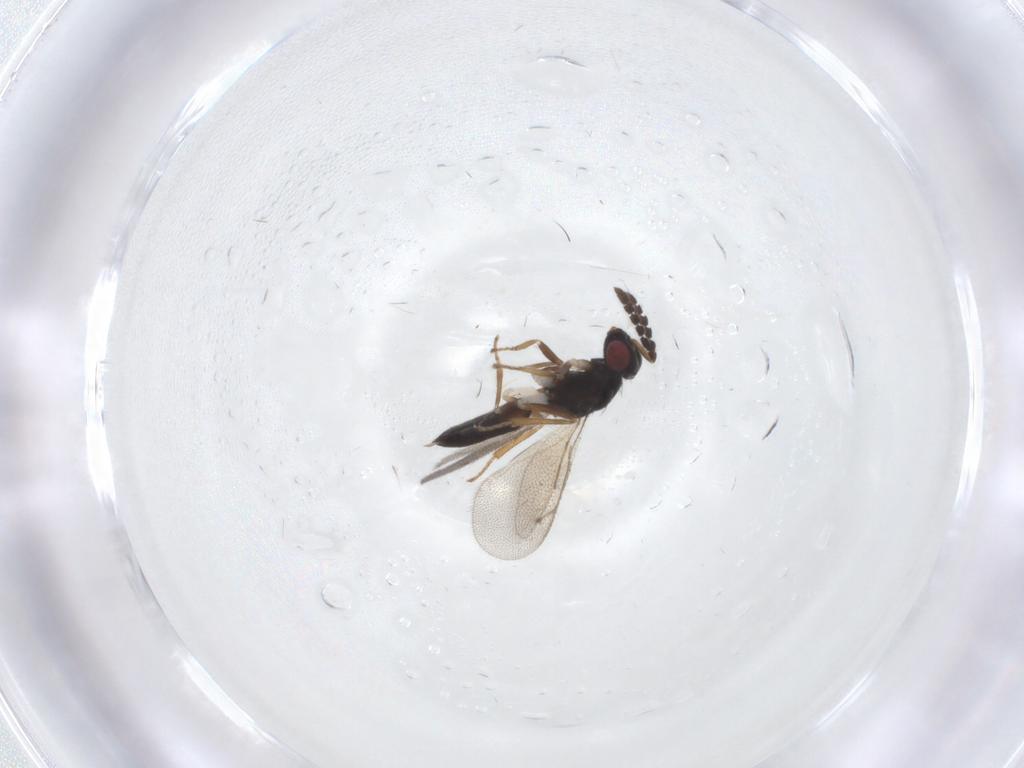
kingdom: Animalia
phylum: Arthropoda
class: Insecta
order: Hymenoptera
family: Eulophidae
